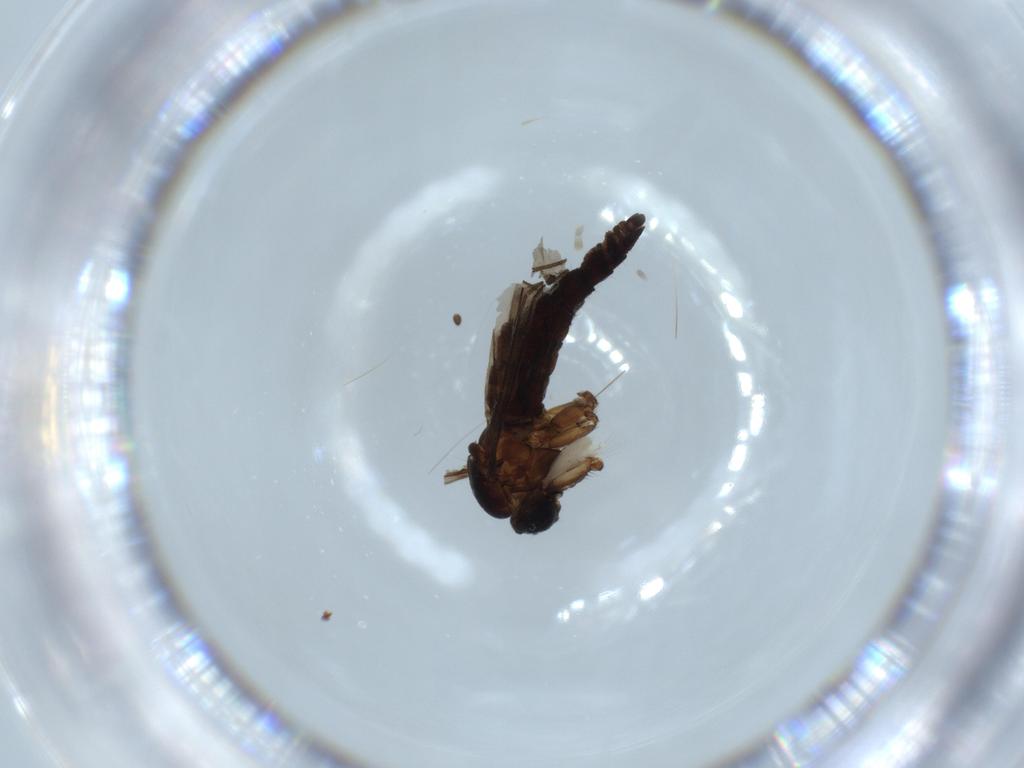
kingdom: Animalia
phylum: Arthropoda
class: Insecta
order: Diptera
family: Sciaridae
